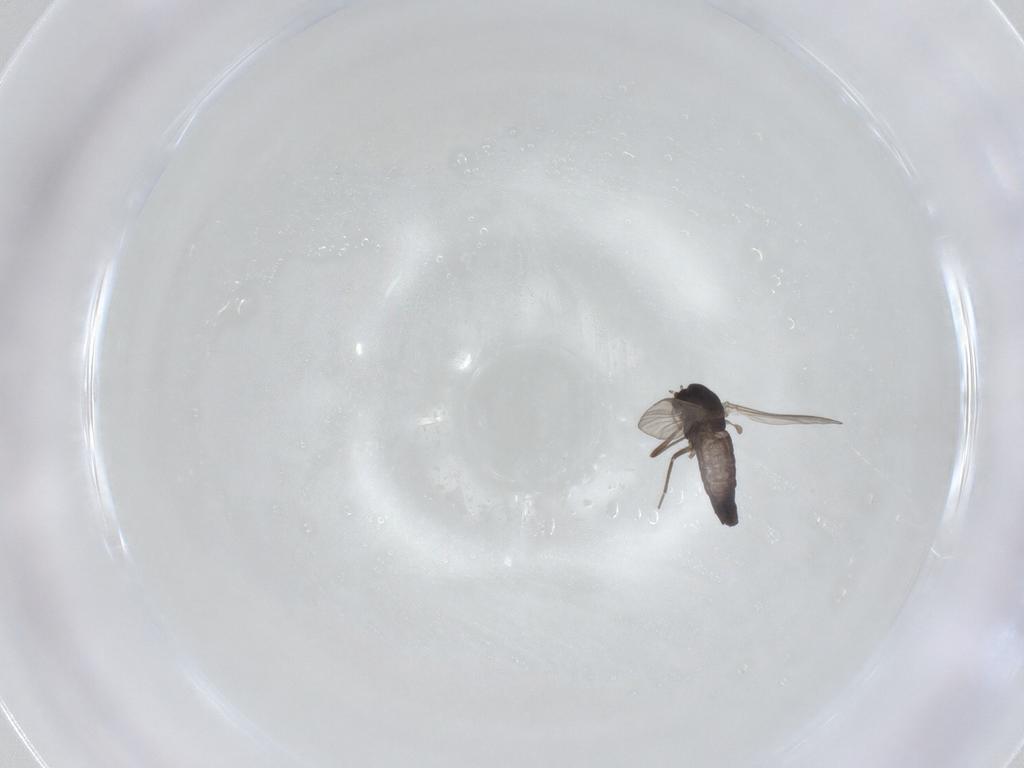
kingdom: Animalia
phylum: Arthropoda
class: Insecta
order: Diptera
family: Chironomidae
